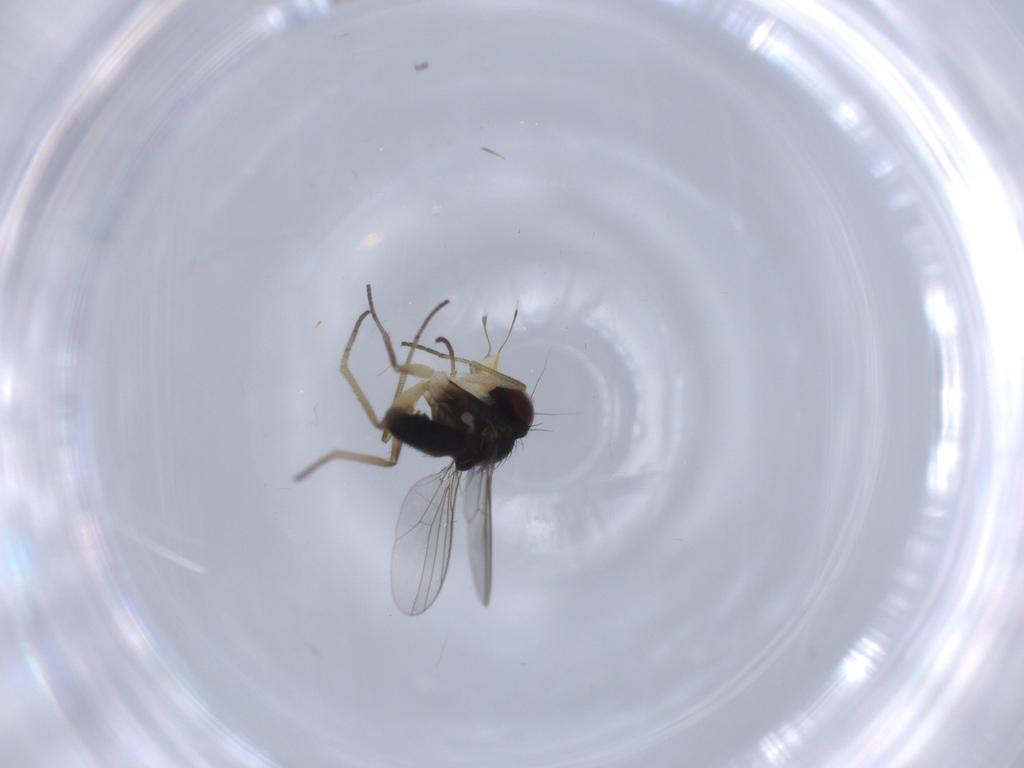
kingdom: Animalia
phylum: Arthropoda
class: Insecta
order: Diptera
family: Dolichopodidae
